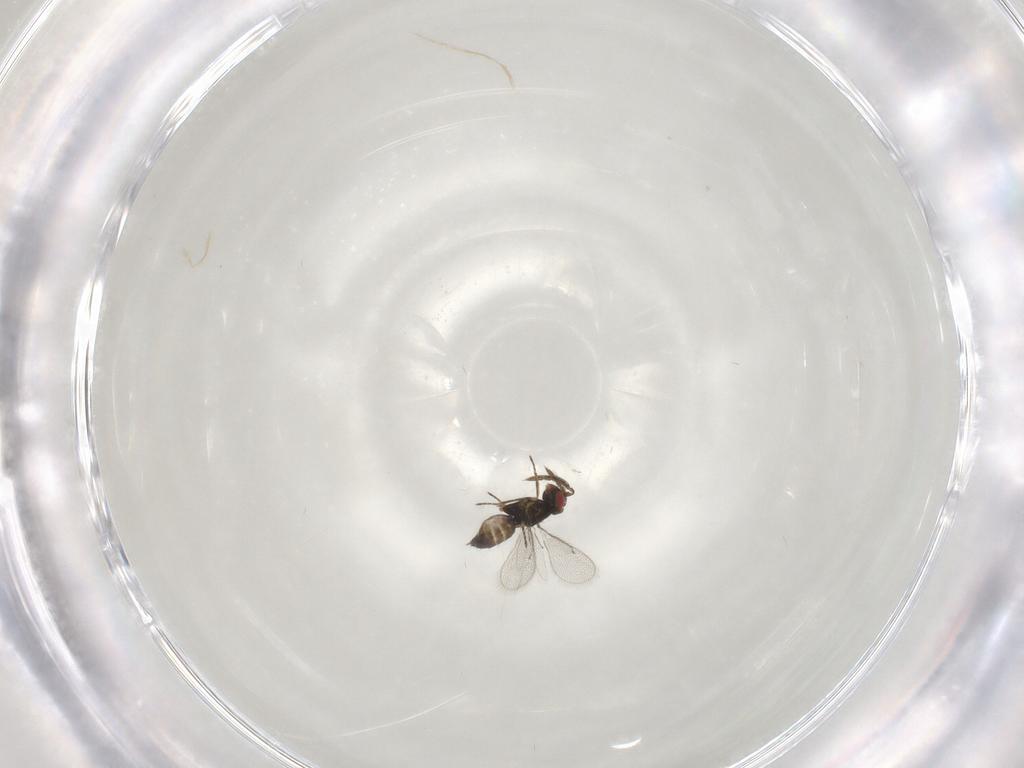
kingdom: Animalia
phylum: Arthropoda
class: Insecta
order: Hymenoptera
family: Eulophidae
